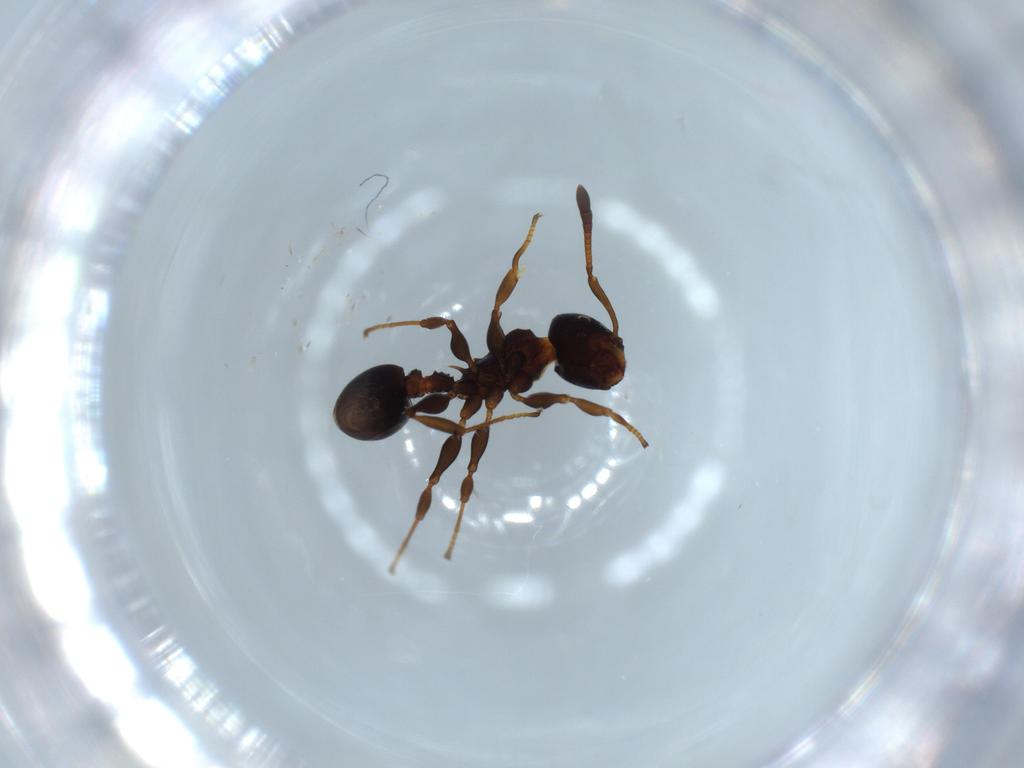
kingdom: Animalia
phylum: Arthropoda
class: Insecta
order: Hymenoptera
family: Formicidae
